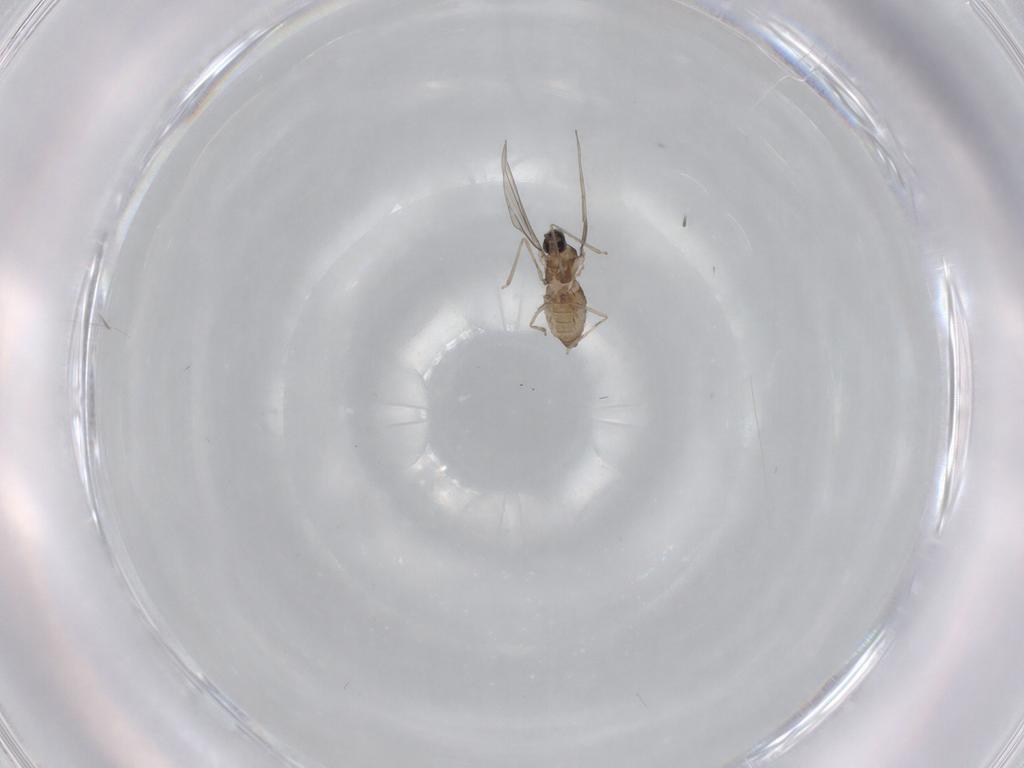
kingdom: Animalia
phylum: Arthropoda
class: Insecta
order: Diptera
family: Cecidomyiidae
